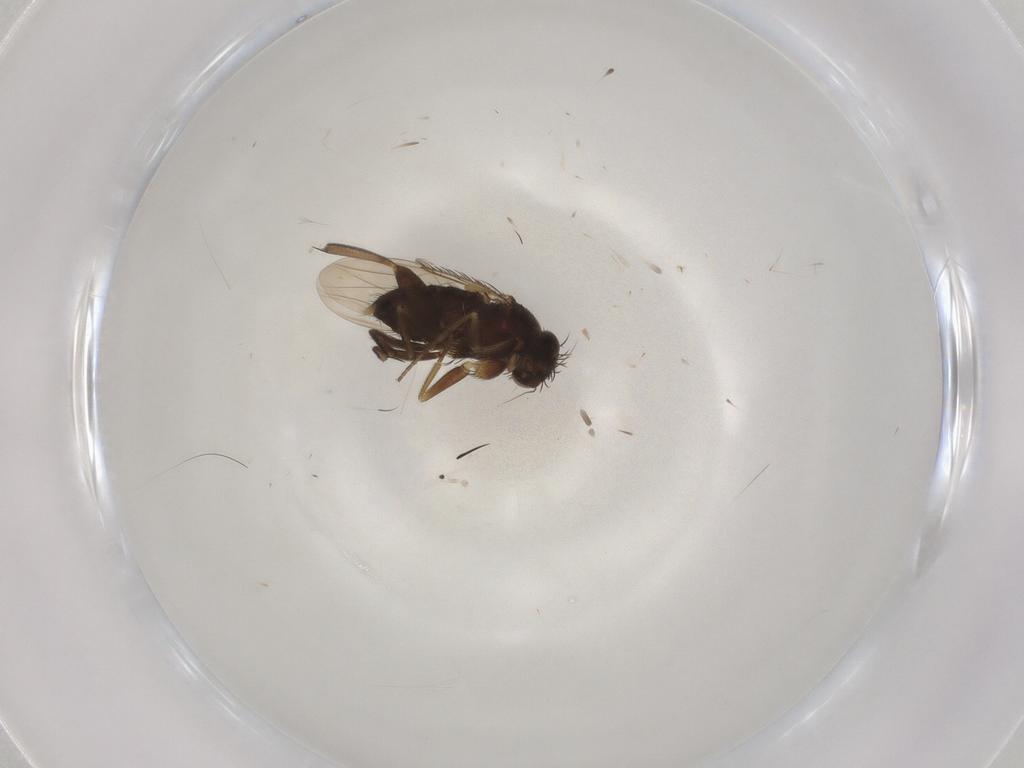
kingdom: Animalia
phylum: Arthropoda
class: Insecta
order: Diptera
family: Phoridae
